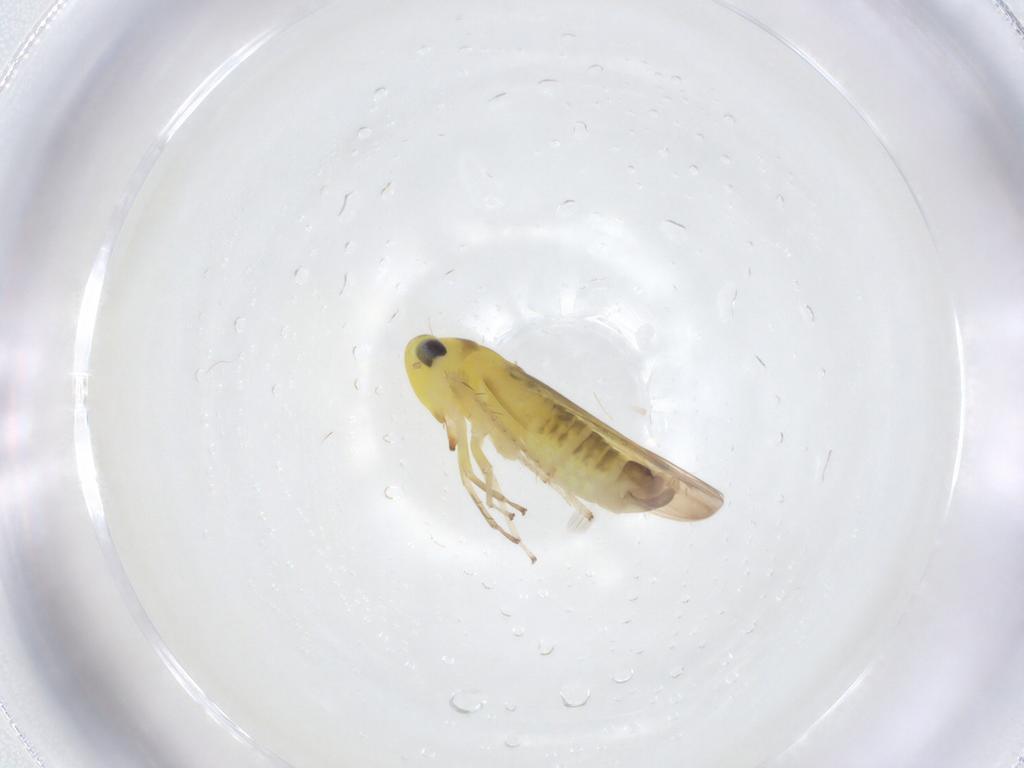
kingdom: Animalia
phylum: Arthropoda
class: Insecta
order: Hemiptera
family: Cicadellidae
